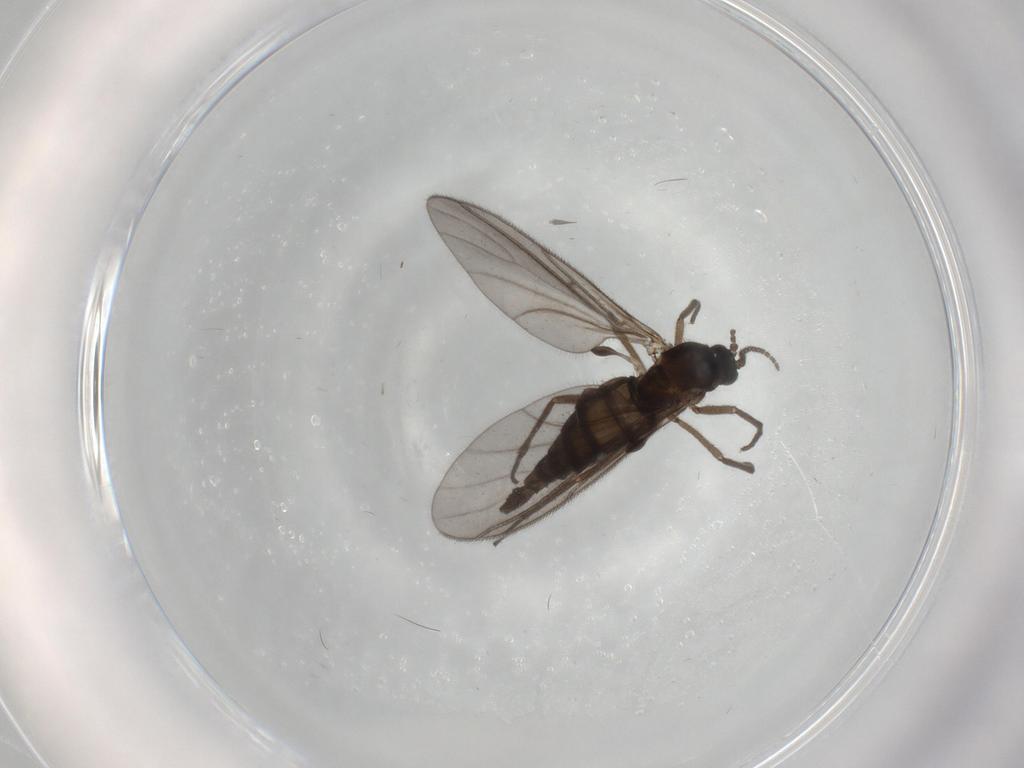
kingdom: Animalia
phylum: Arthropoda
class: Insecta
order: Diptera
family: Sciaridae
